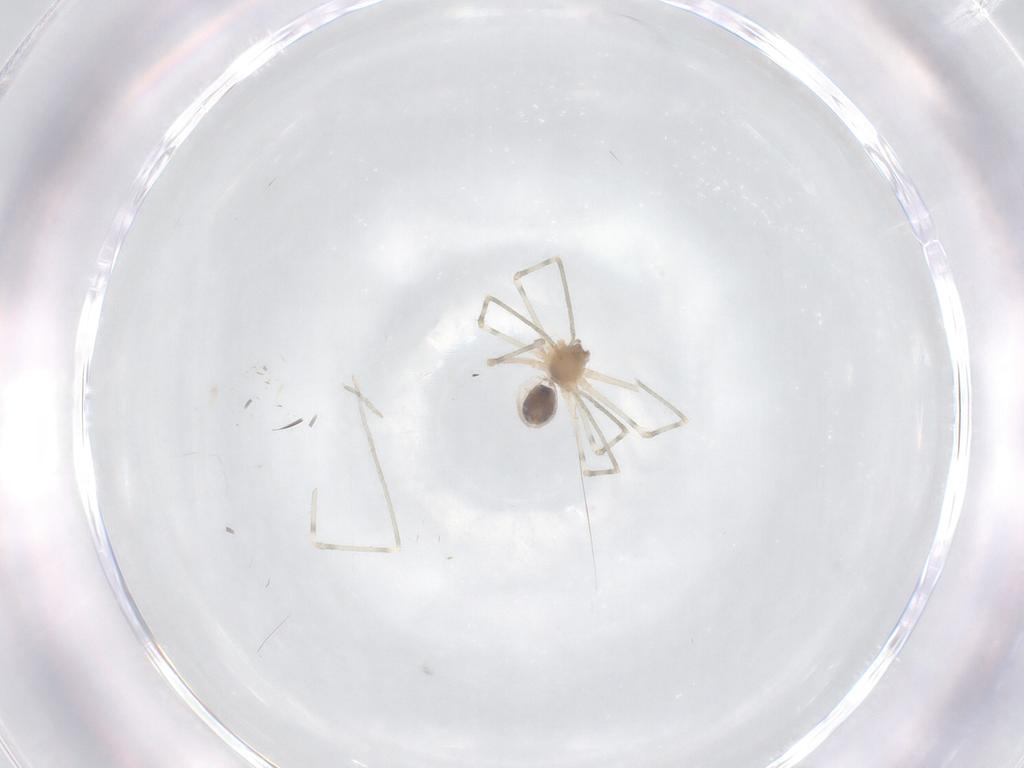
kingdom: Animalia
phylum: Arthropoda
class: Arachnida
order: Araneae
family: Pholcidae
